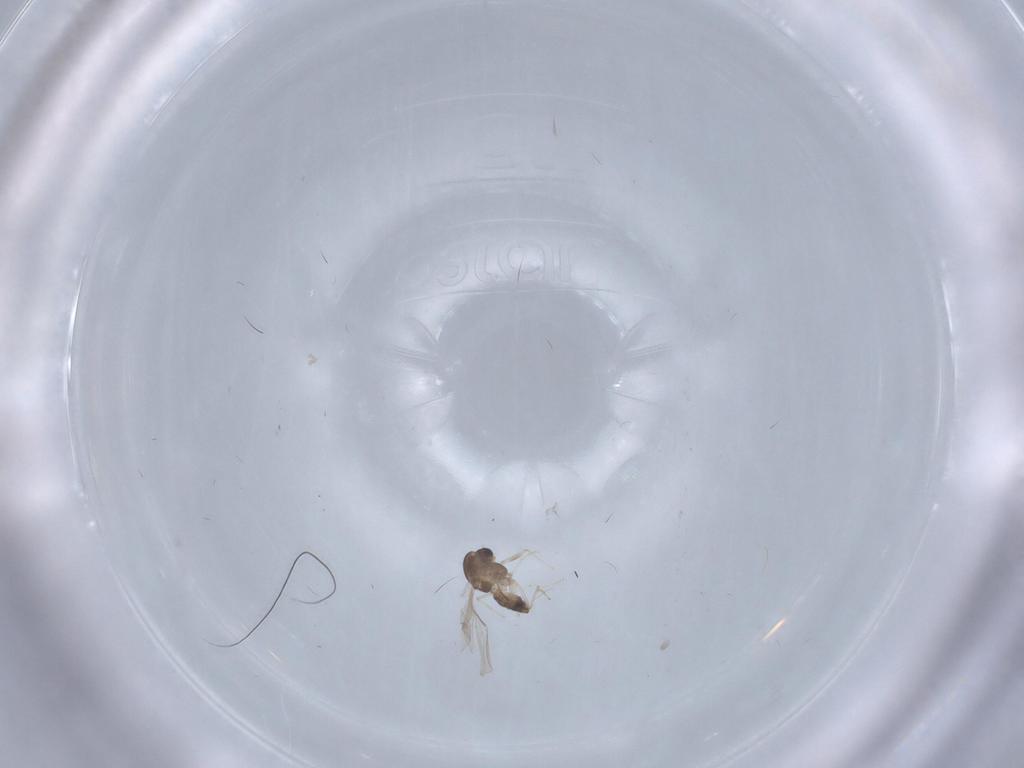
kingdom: Animalia
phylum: Arthropoda
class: Insecta
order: Diptera
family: Chironomidae
